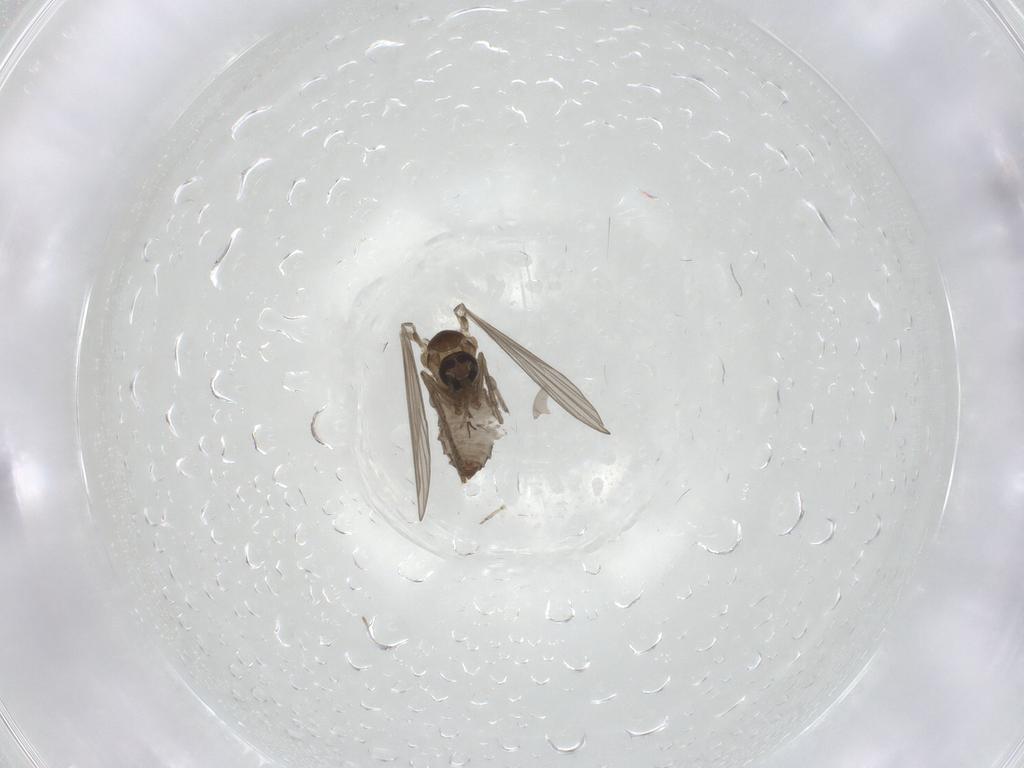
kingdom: Animalia
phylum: Arthropoda
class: Insecta
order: Diptera
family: Psychodidae
